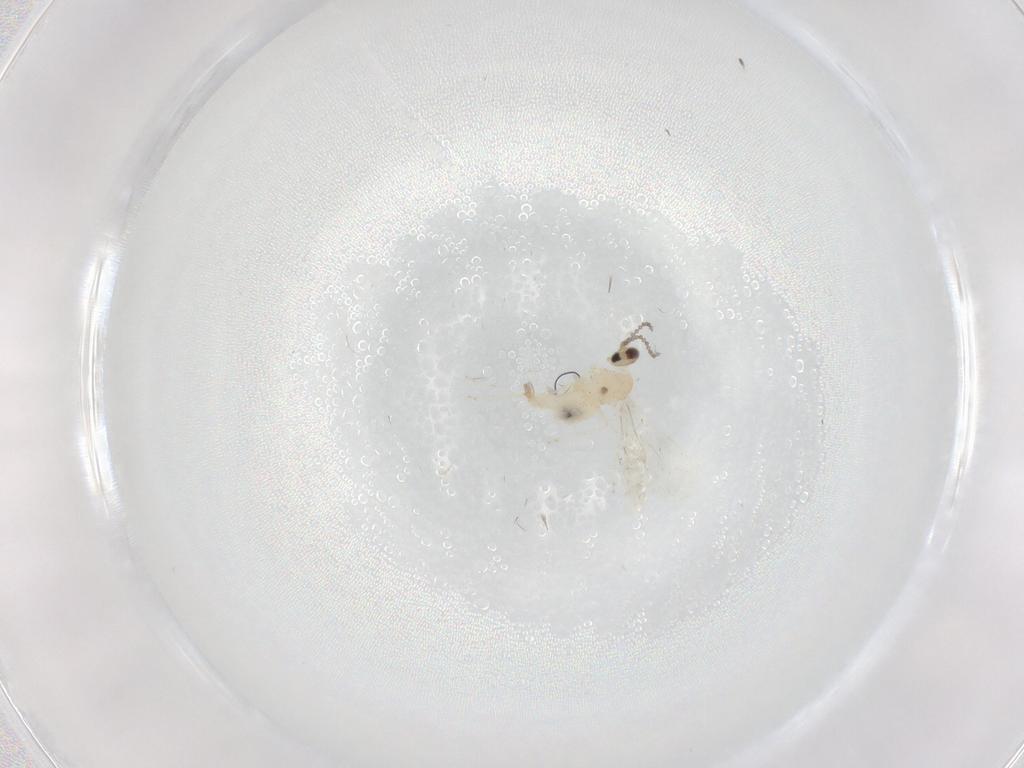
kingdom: Animalia
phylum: Arthropoda
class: Insecta
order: Diptera
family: Chironomidae
